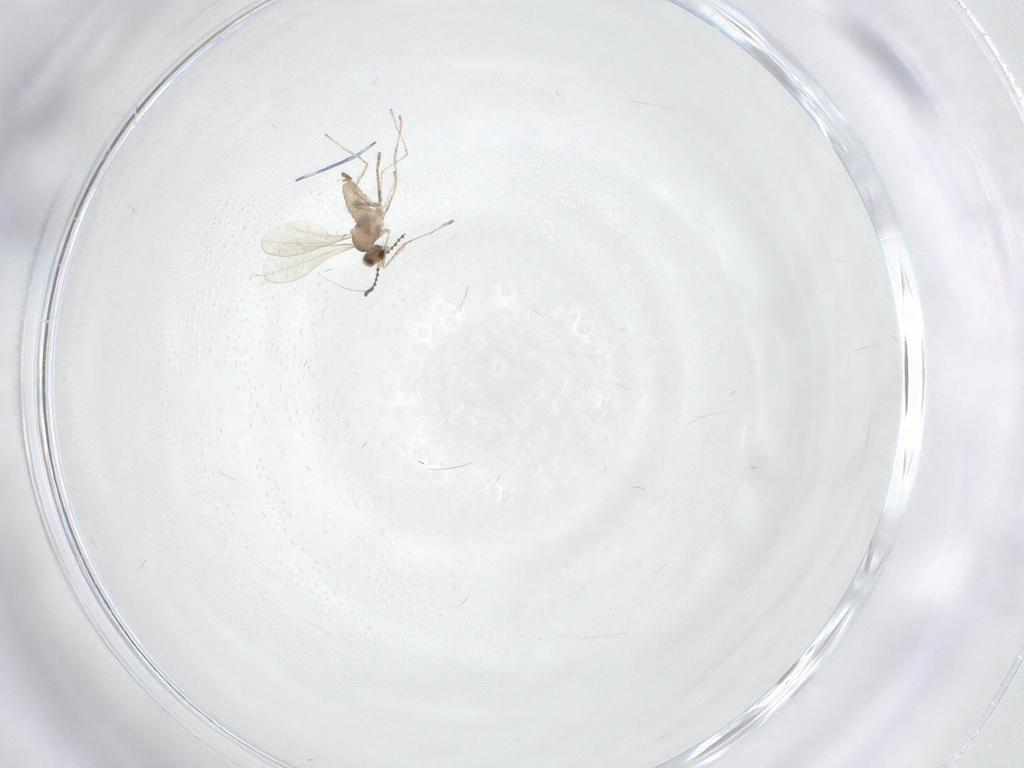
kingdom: Animalia
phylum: Arthropoda
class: Insecta
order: Diptera
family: Cecidomyiidae
